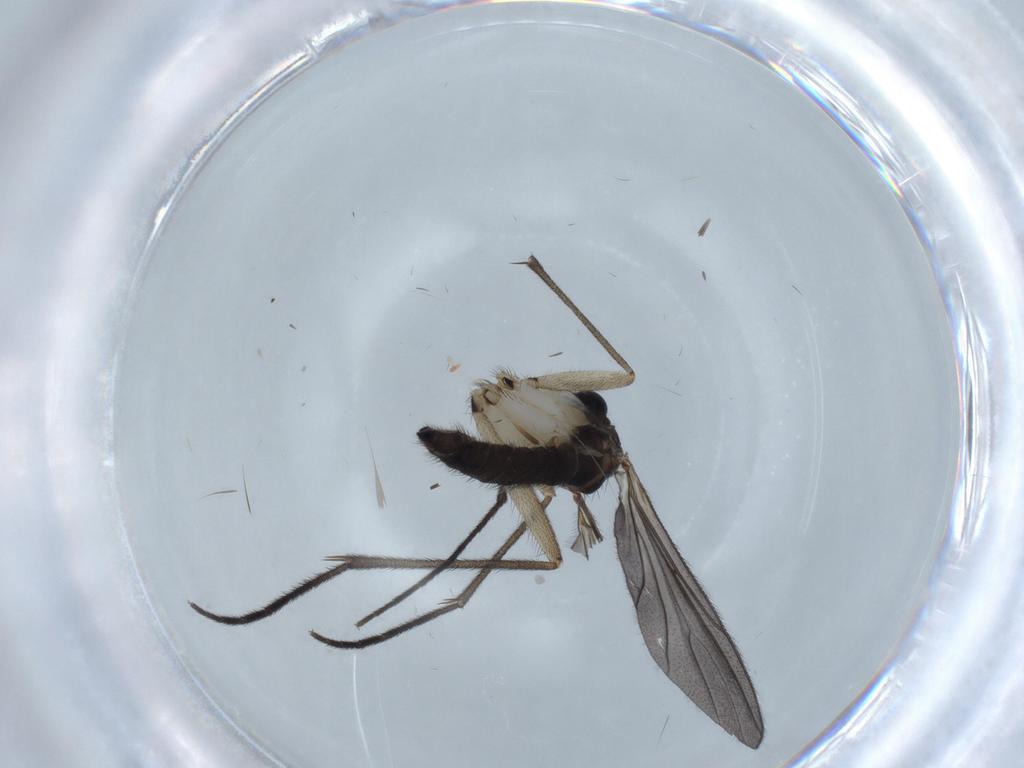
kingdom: Animalia
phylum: Arthropoda
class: Insecta
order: Diptera
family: Sciaridae
